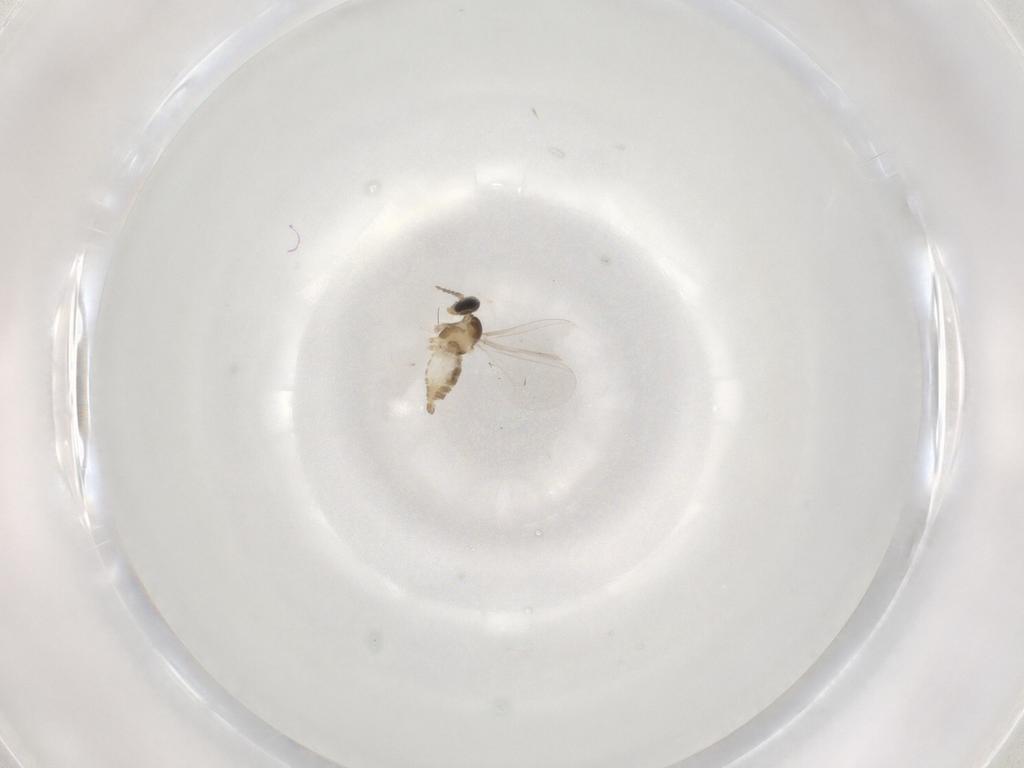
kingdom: Animalia
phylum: Arthropoda
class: Insecta
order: Diptera
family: Cecidomyiidae
